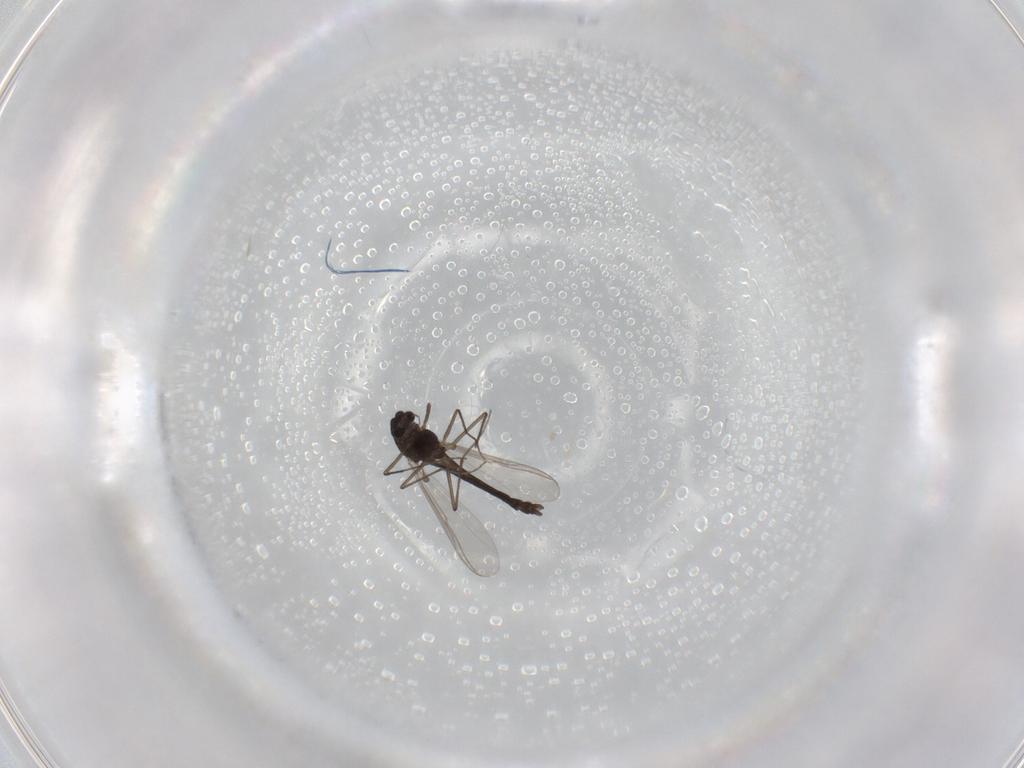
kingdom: Animalia
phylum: Arthropoda
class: Insecta
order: Diptera
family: Chironomidae
